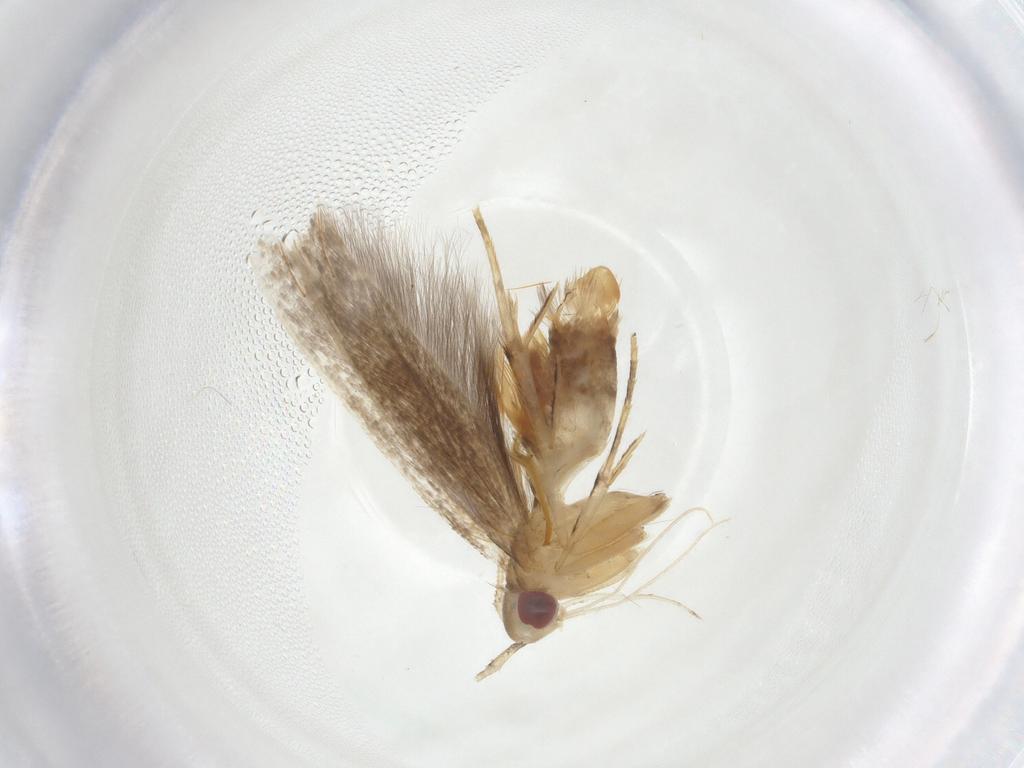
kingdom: Animalia
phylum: Arthropoda
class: Insecta
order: Lepidoptera
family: Cosmopterigidae
